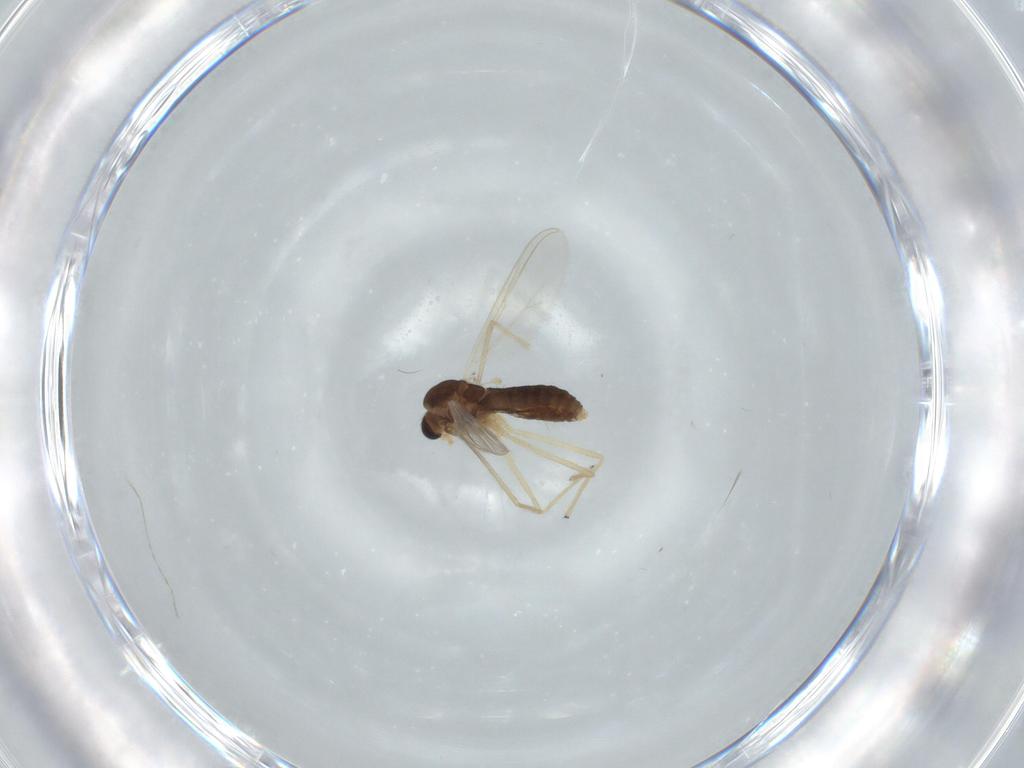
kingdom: Animalia
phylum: Arthropoda
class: Insecta
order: Diptera
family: Chironomidae
